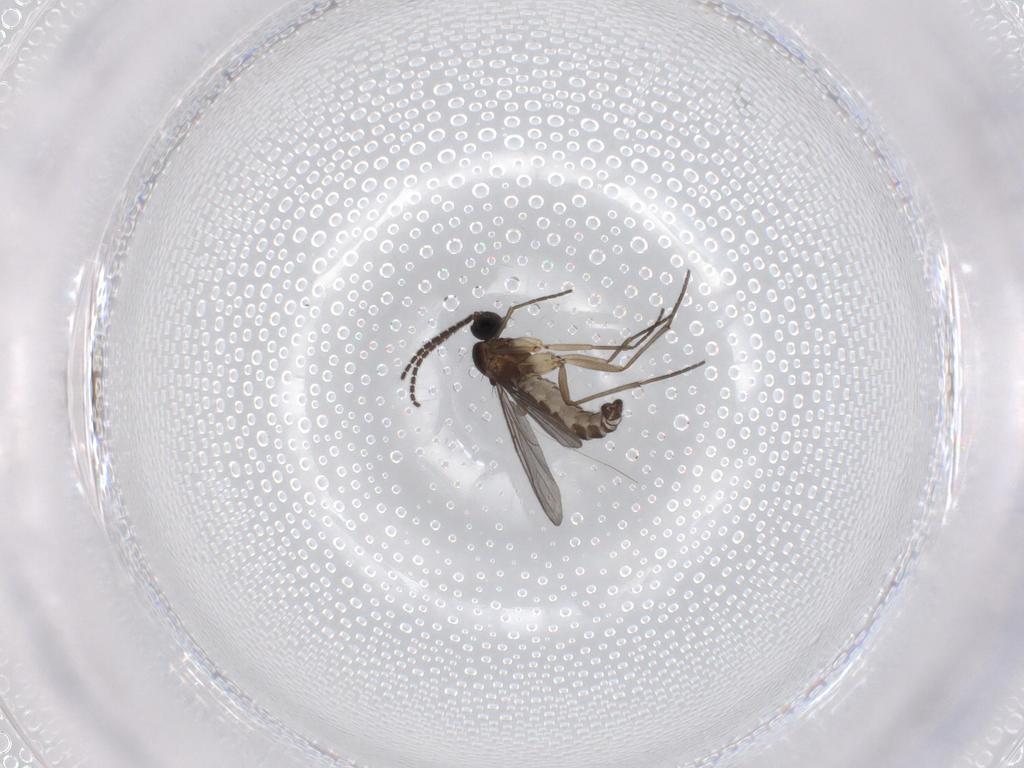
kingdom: Animalia
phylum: Arthropoda
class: Insecta
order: Diptera
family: Sciaridae
